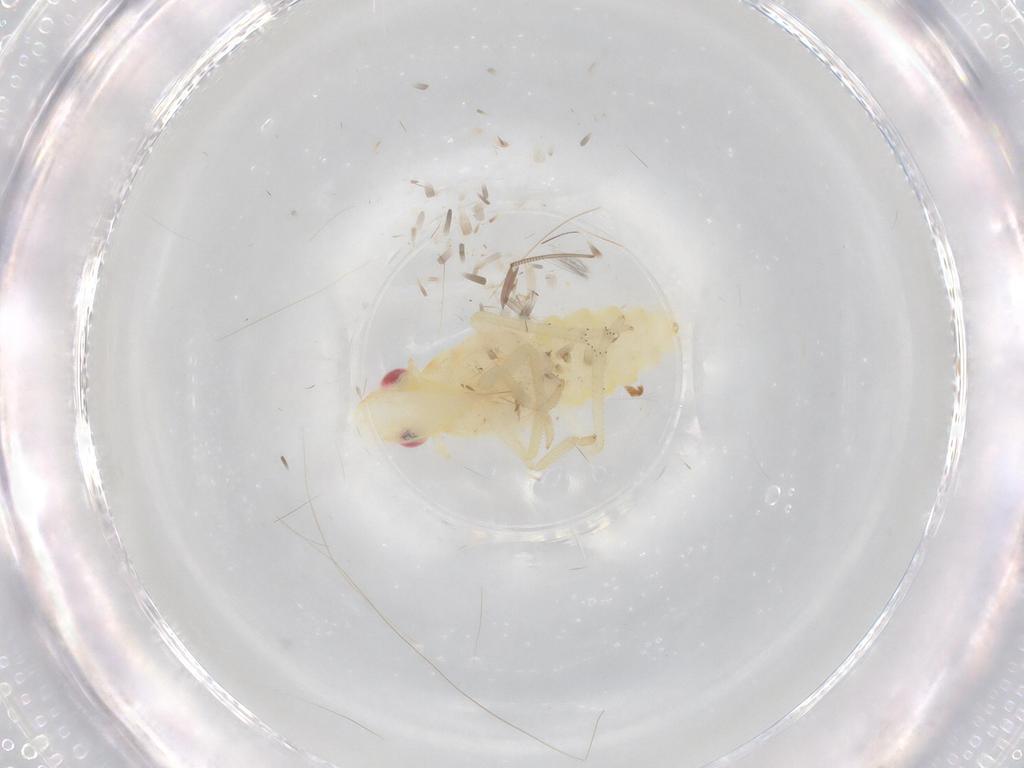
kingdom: Animalia
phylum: Arthropoda
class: Insecta
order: Hemiptera
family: Tropiduchidae
